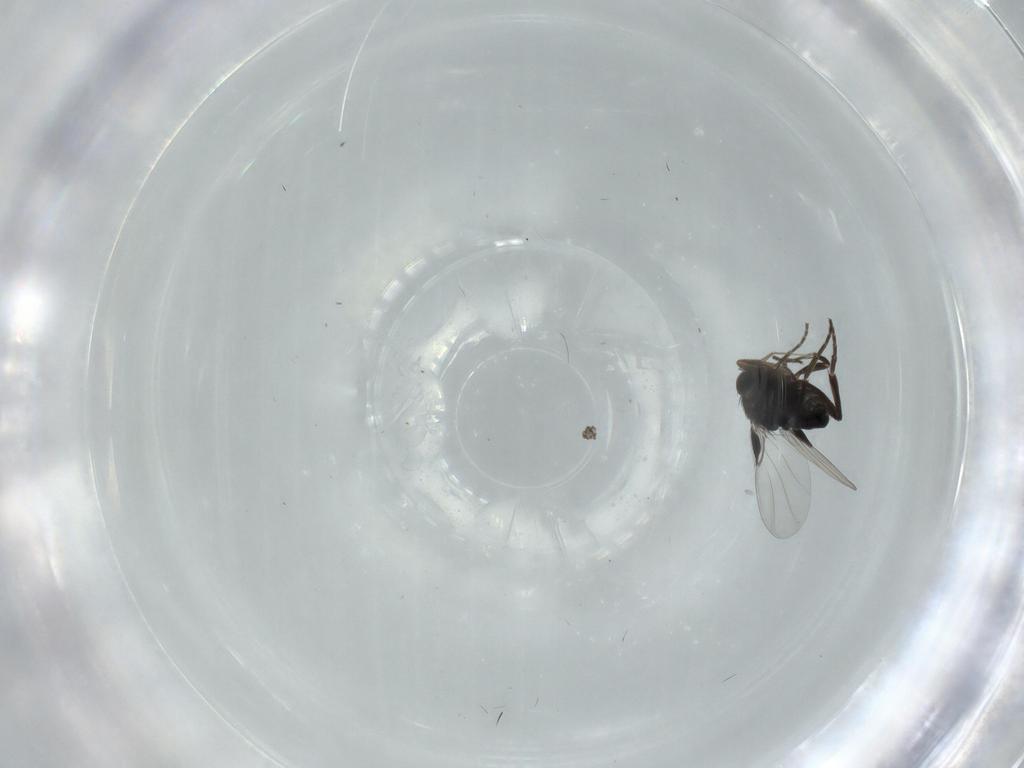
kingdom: Animalia
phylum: Arthropoda
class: Insecta
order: Diptera
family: Phoridae
